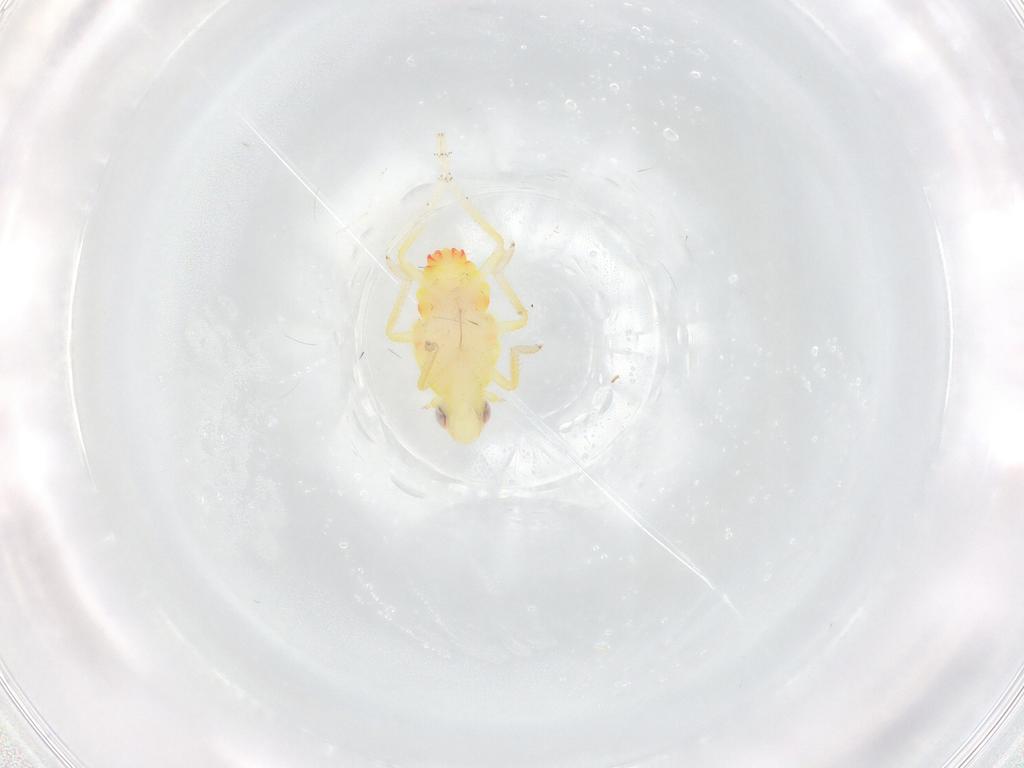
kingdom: Animalia
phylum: Arthropoda
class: Insecta
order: Hemiptera
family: Tropiduchidae
